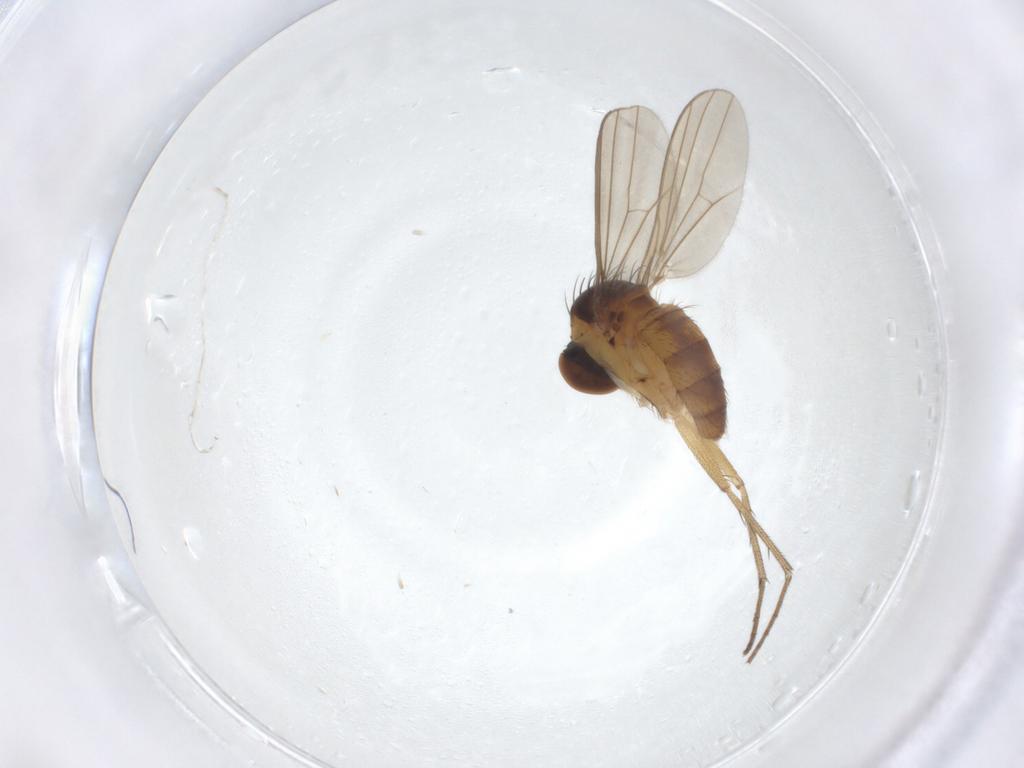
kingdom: Animalia
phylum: Arthropoda
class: Insecta
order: Diptera
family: Dolichopodidae
